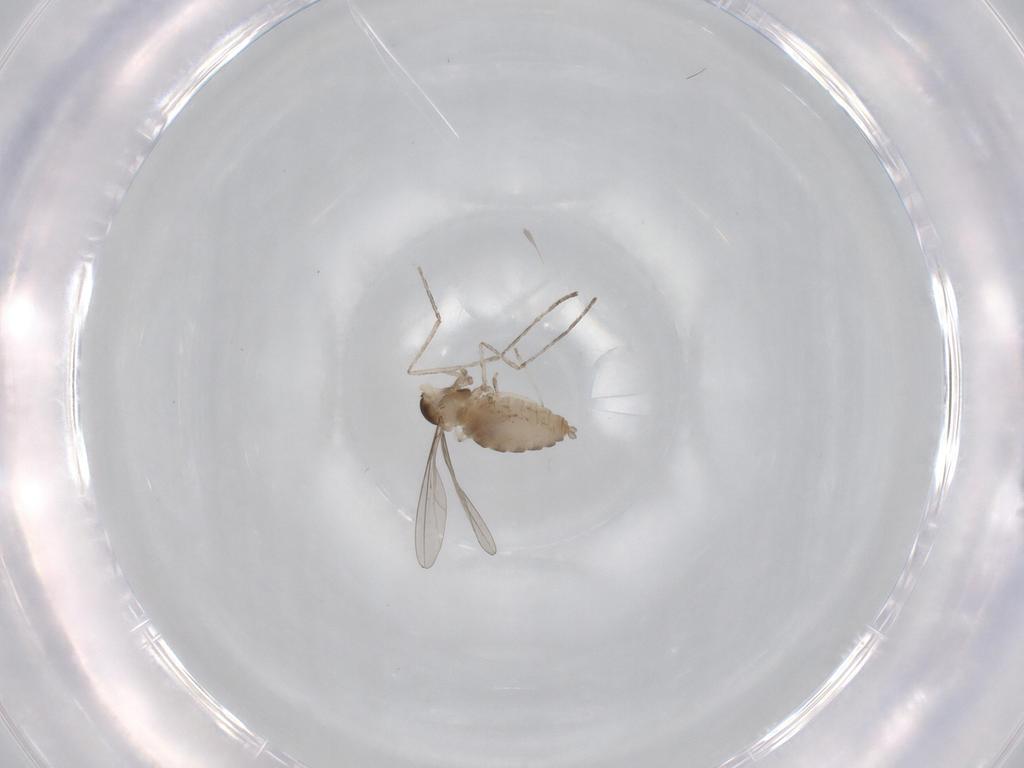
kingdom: Animalia
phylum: Arthropoda
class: Insecta
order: Diptera
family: Cecidomyiidae
